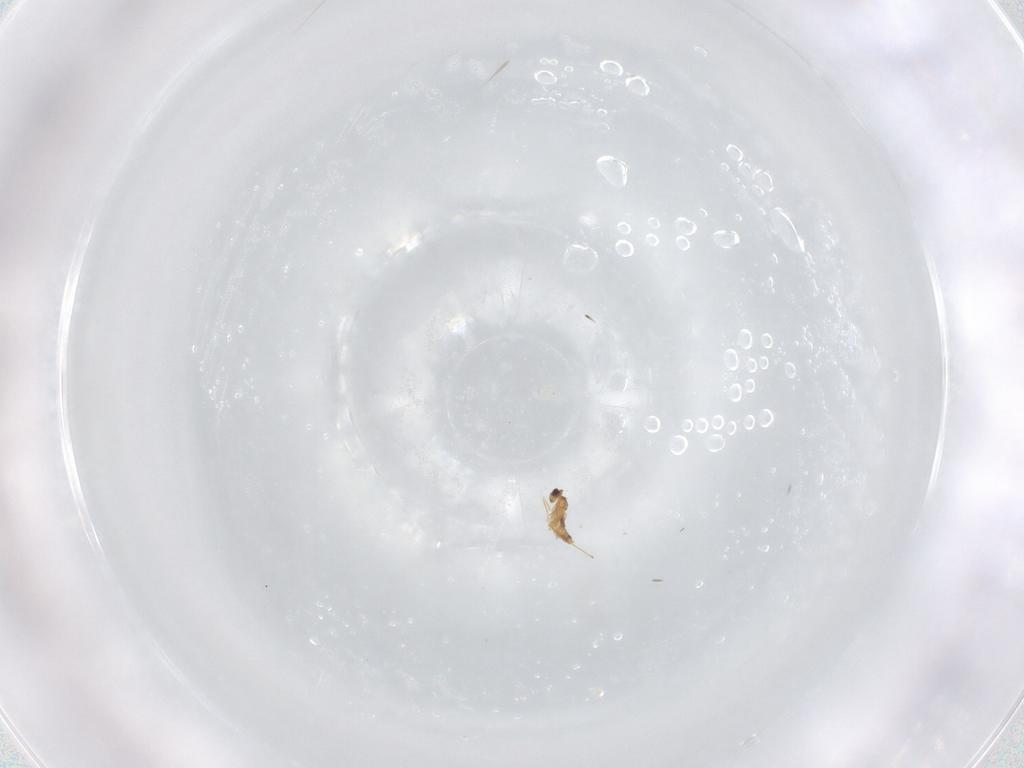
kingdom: Animalia
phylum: Arthropoda
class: Insecta
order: Hymenoptera
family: Mymaridae
